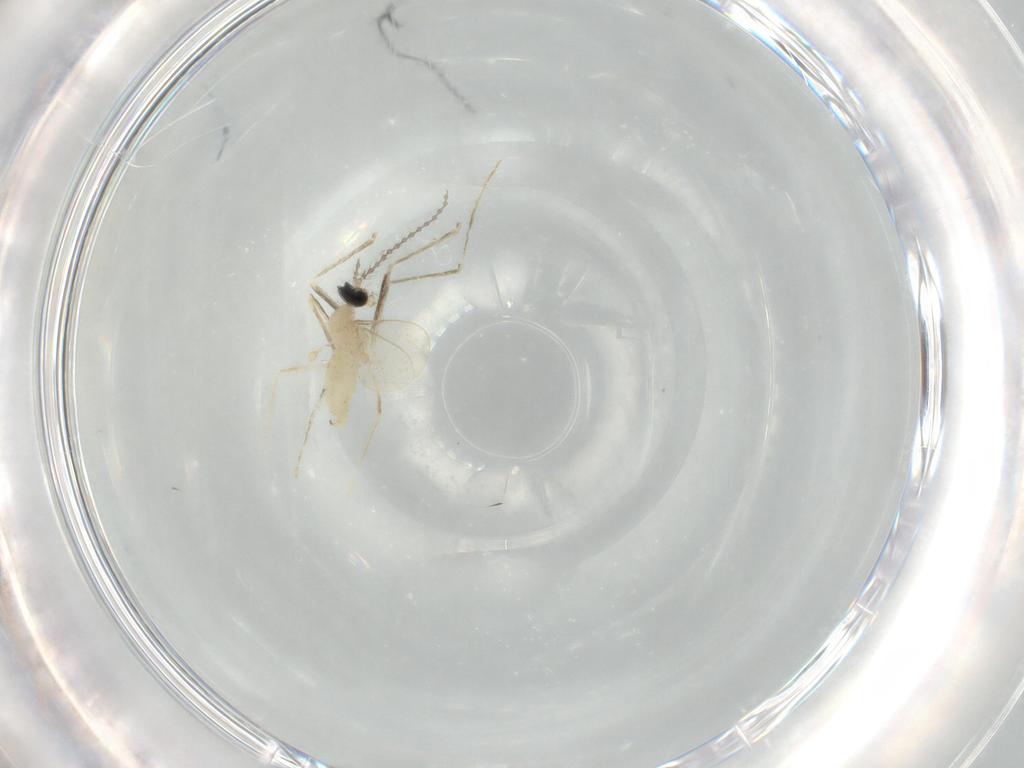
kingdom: Animalia
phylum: Arthropoda
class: Insecta
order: Diptera
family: Cecidomyiidae
